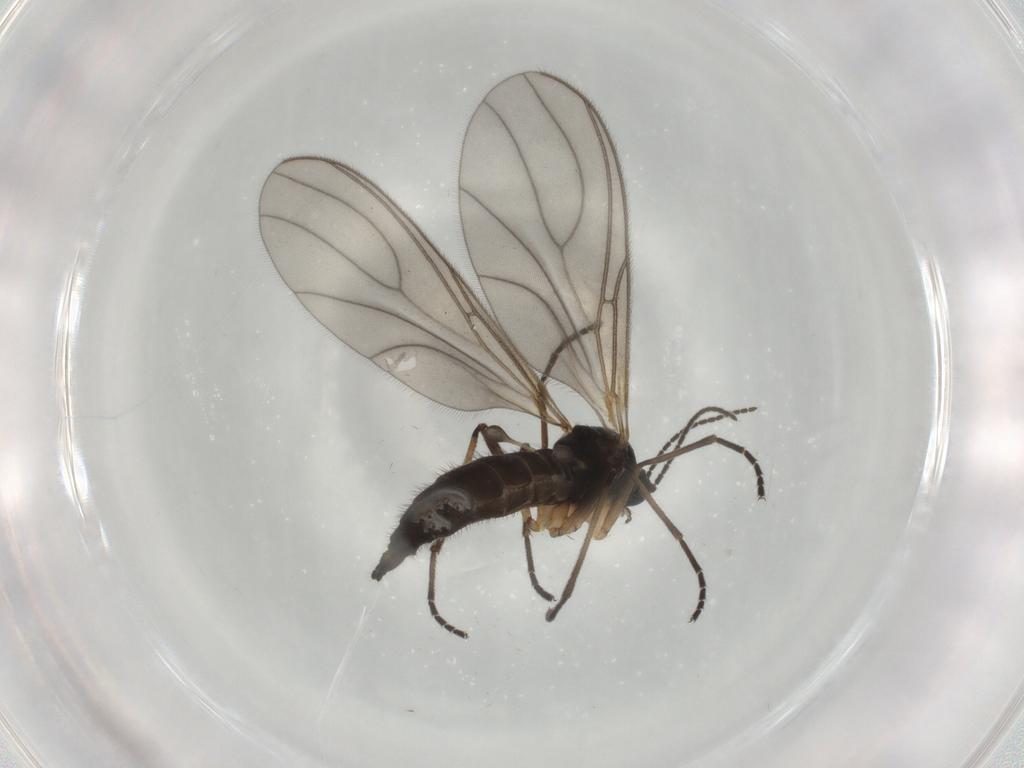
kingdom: Animalia
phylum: Arthropoda
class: Insecta
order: Diptera
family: Sciaridae
